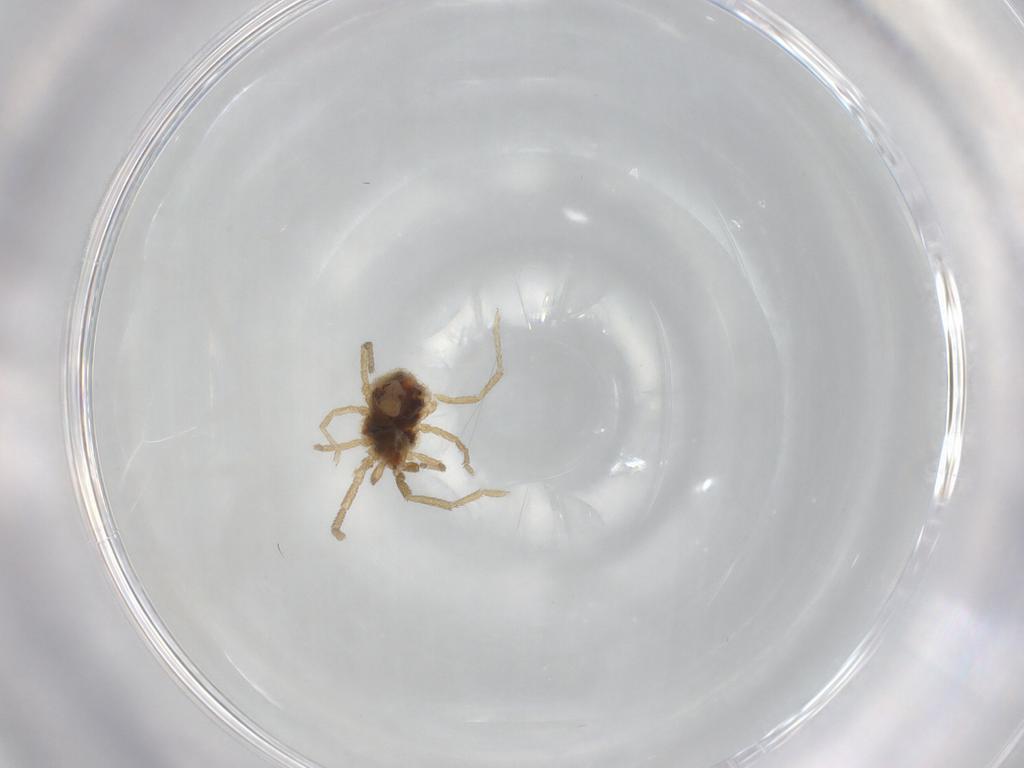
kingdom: Animalia
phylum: Arthropoda
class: Arachnida
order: Trombidiformes
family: Erythraeidae
